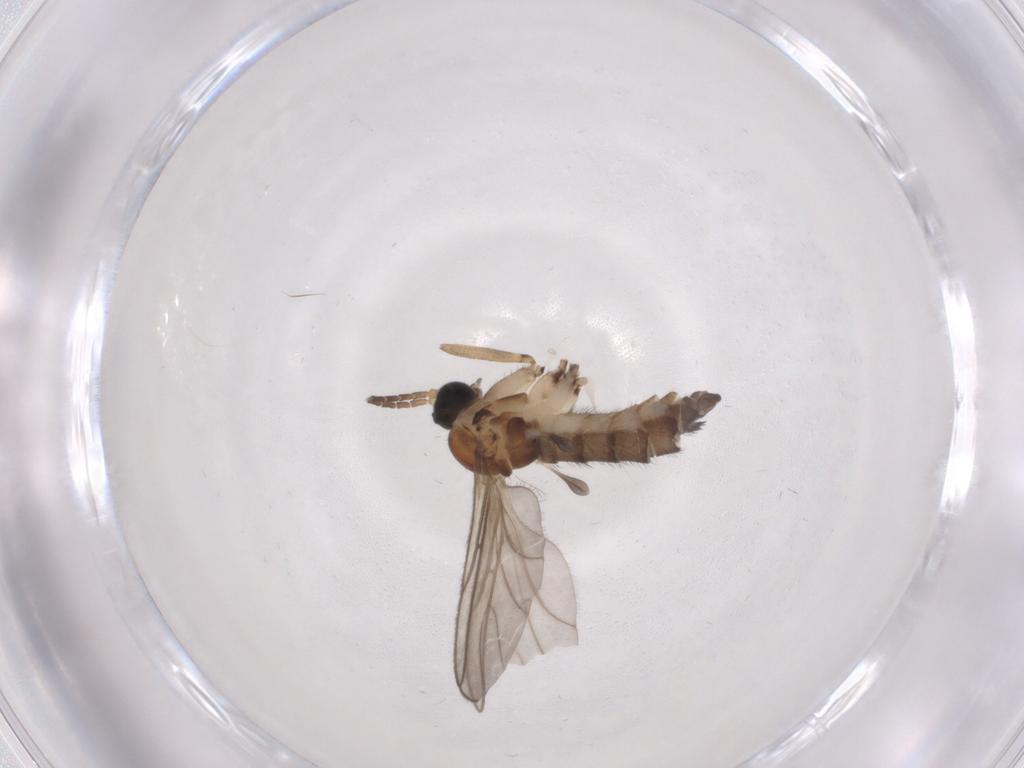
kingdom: Animalia
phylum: Arthropoda
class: Insecta
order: Diptera
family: Sciaridae
